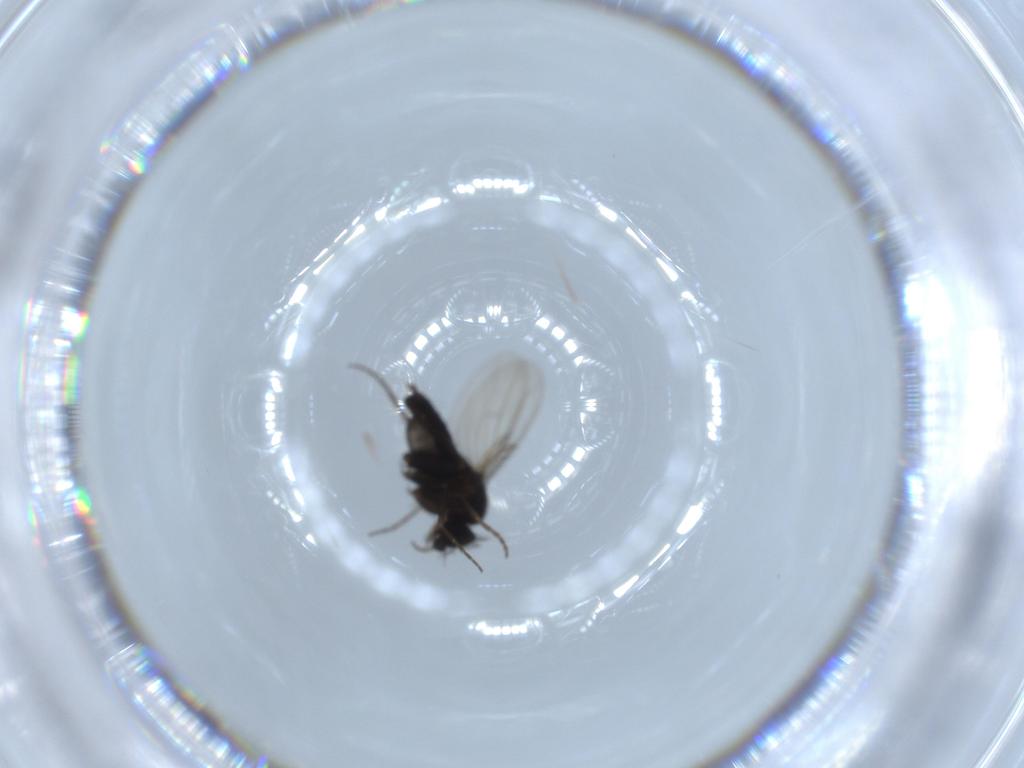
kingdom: Animalia
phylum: Arthropoda
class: Insecta
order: Diptera
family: Phoridae
